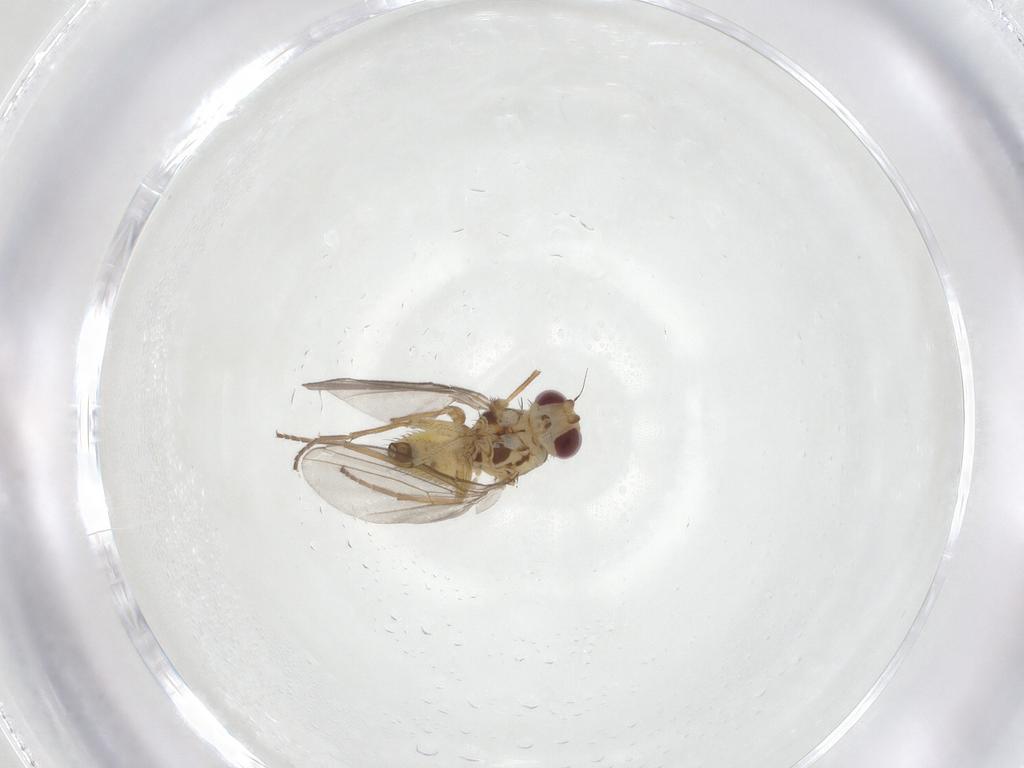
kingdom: Animalia
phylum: Arthropoda
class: Insecta
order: Diptera
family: Agromyzidae
